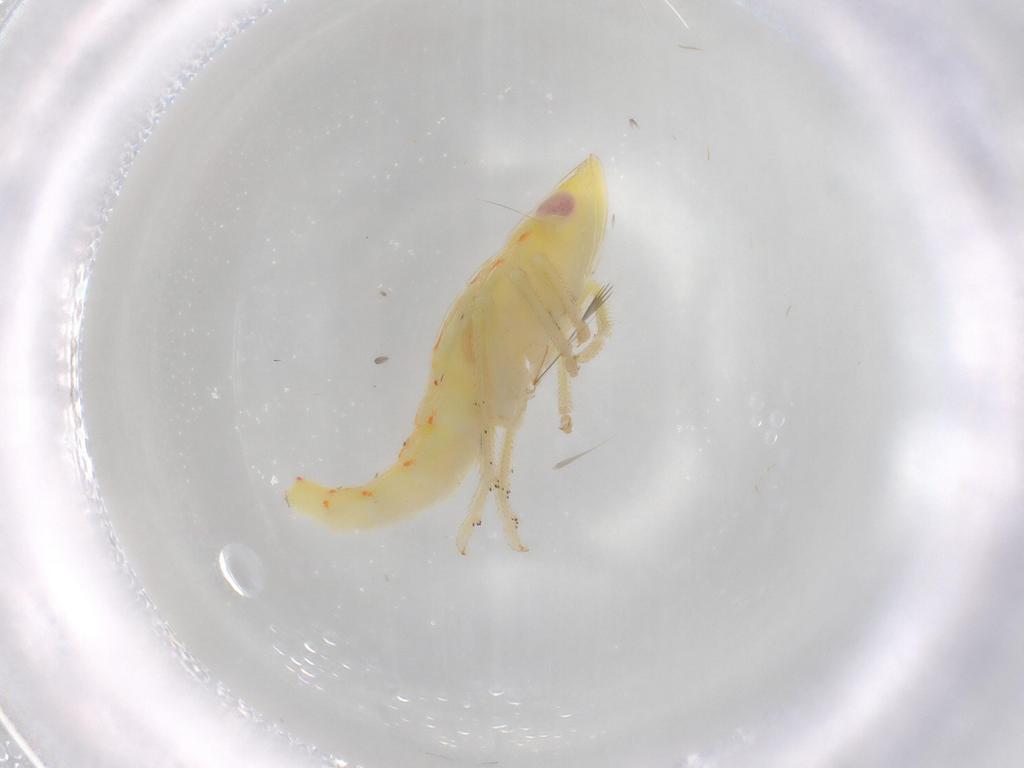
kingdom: Animalia
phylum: Arthropoda
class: Insecta
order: Hemiptera
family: Tropiduchidae
